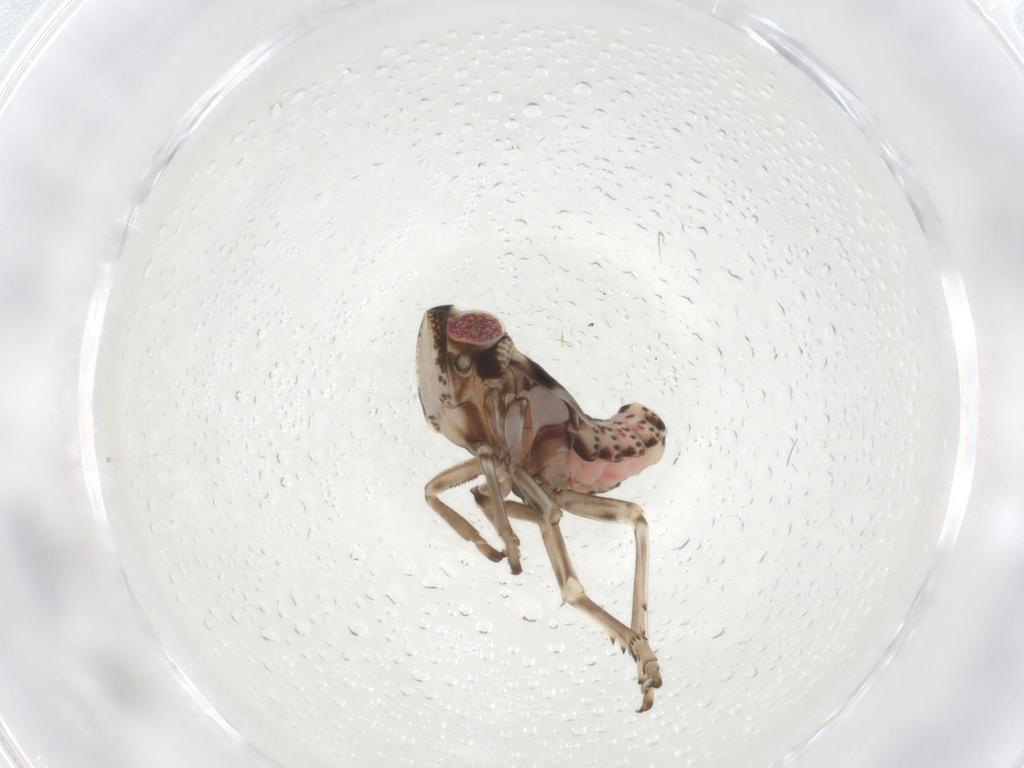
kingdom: Animalia
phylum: Arthropoda
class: Insecta
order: Hemiptera
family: Tropiduchidae
